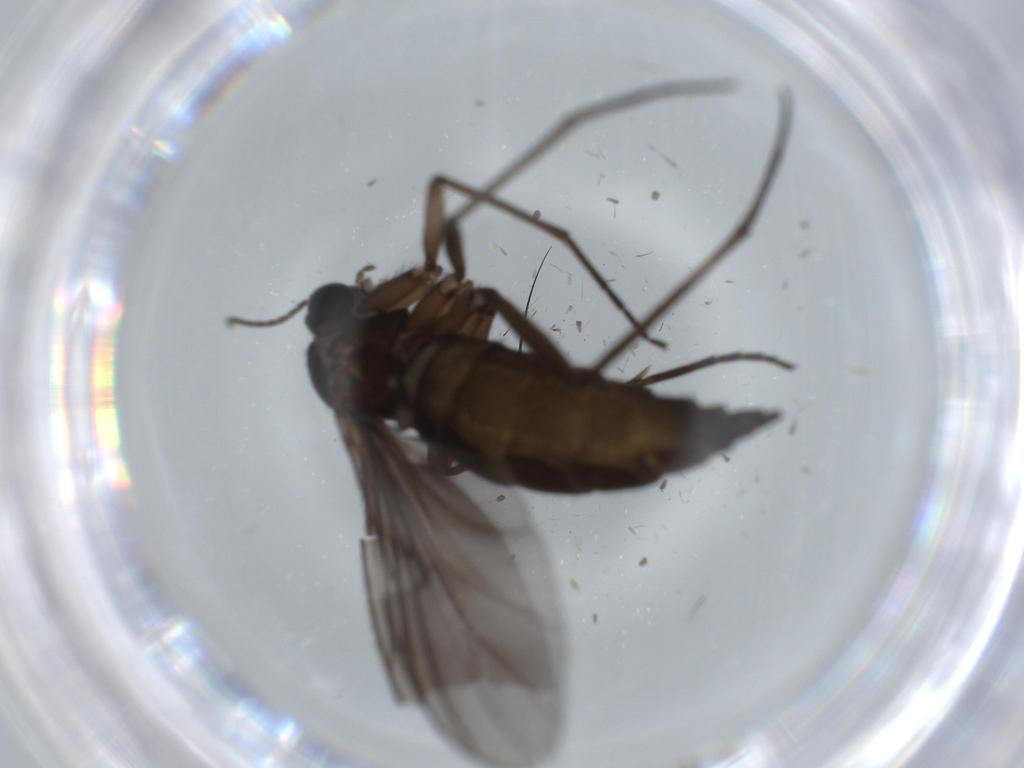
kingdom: Animalia
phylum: Arthropoda
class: Insecta
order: Diptera
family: Sciaridae
